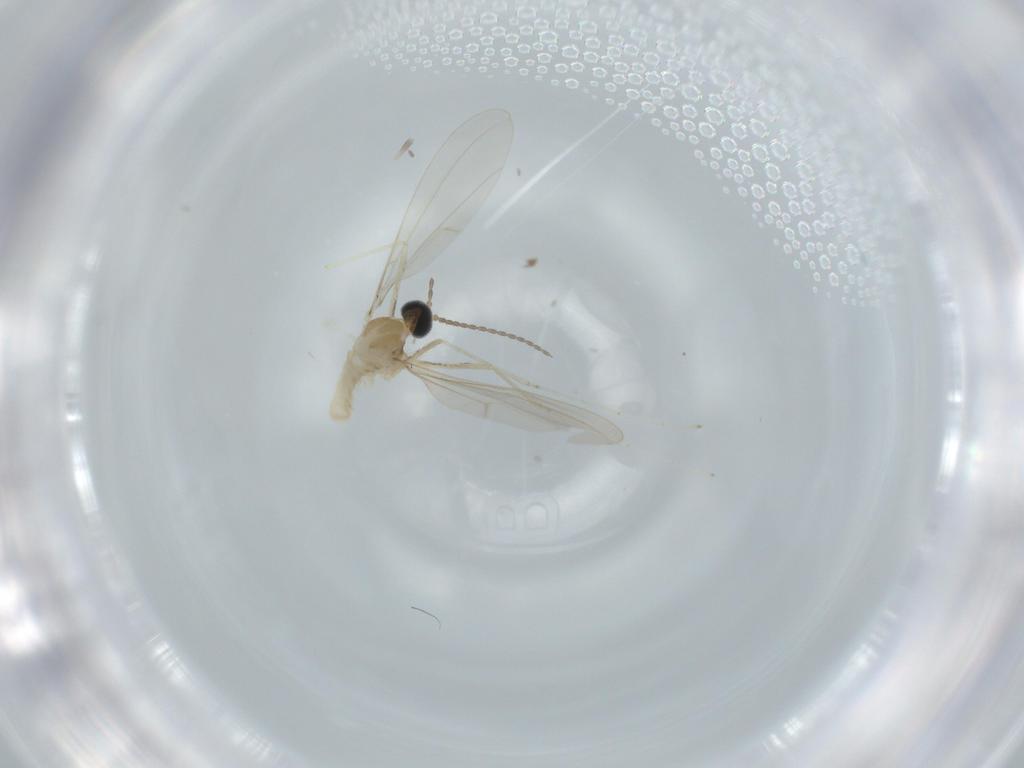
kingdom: Animalia
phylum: Arthropoda
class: Insecta
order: Diptera
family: Cecidomyiidae
